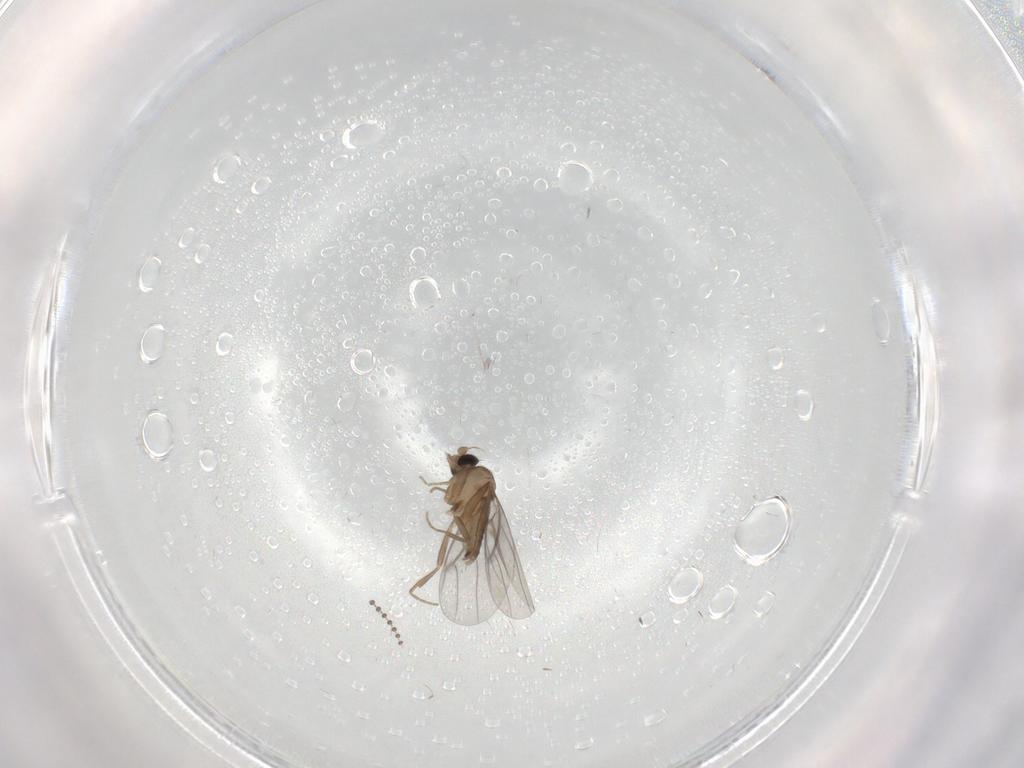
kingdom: Animalia
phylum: Arthropoda
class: Insecta
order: Diptera
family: Psychodidae
